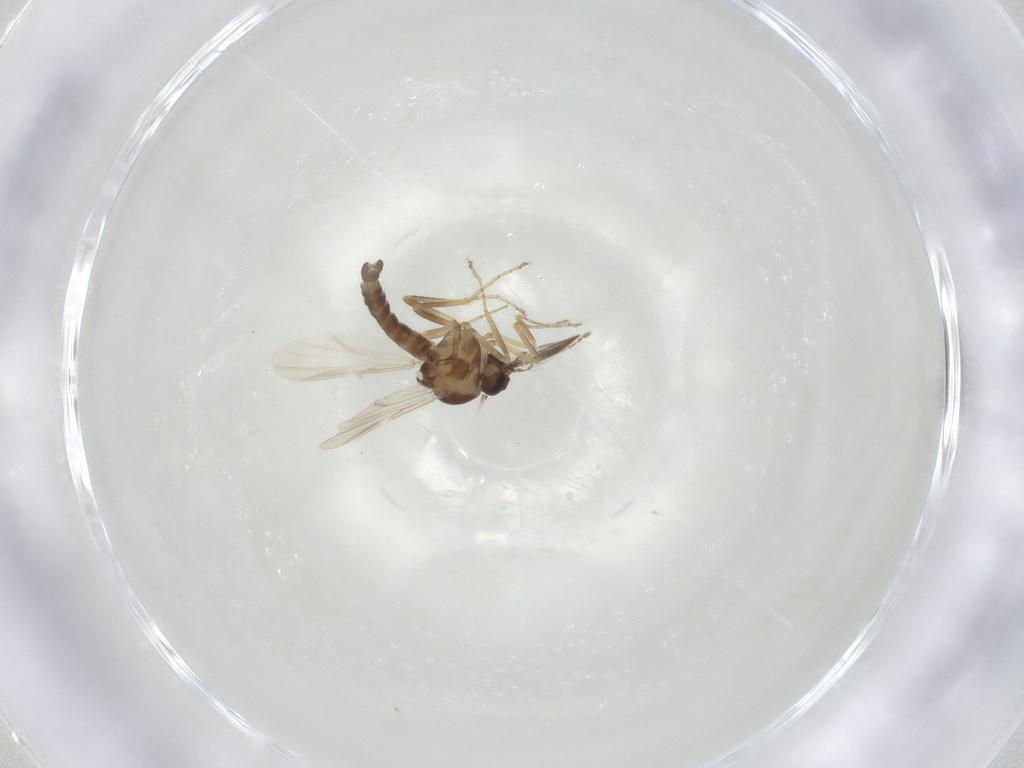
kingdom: Animalia
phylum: Arthropoda
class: Insecta
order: Diptera
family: Ceratopogonidae
